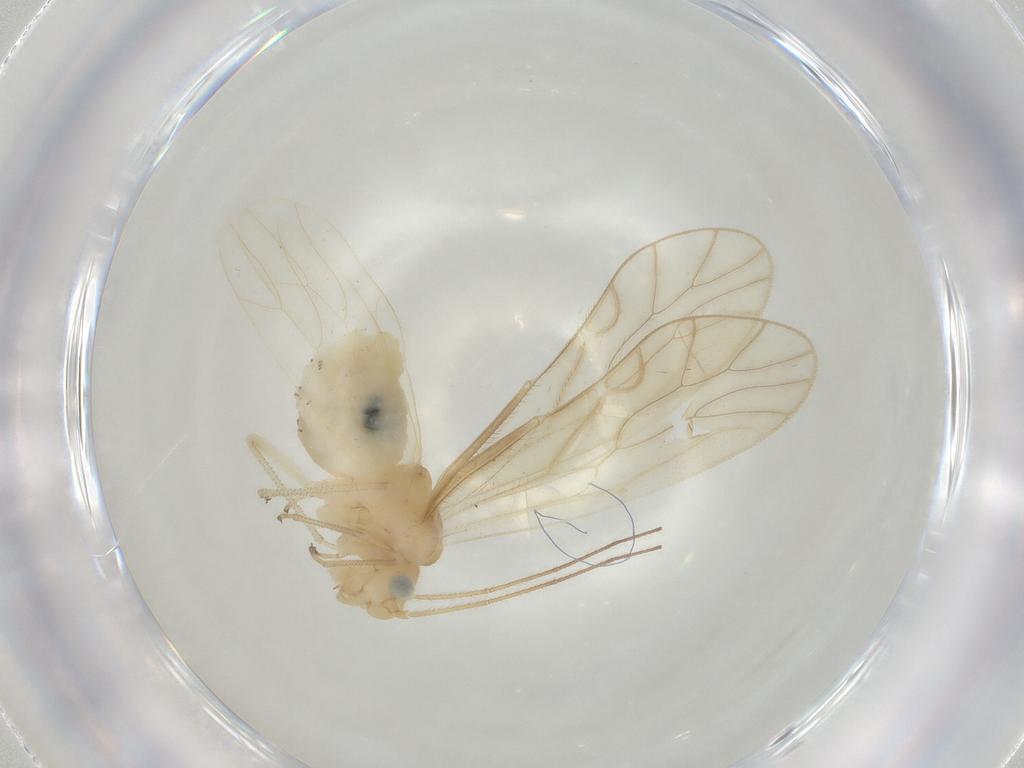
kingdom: Animalia
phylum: Arthropoda
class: Insecta
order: Psocodea
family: Caeciliusidae
